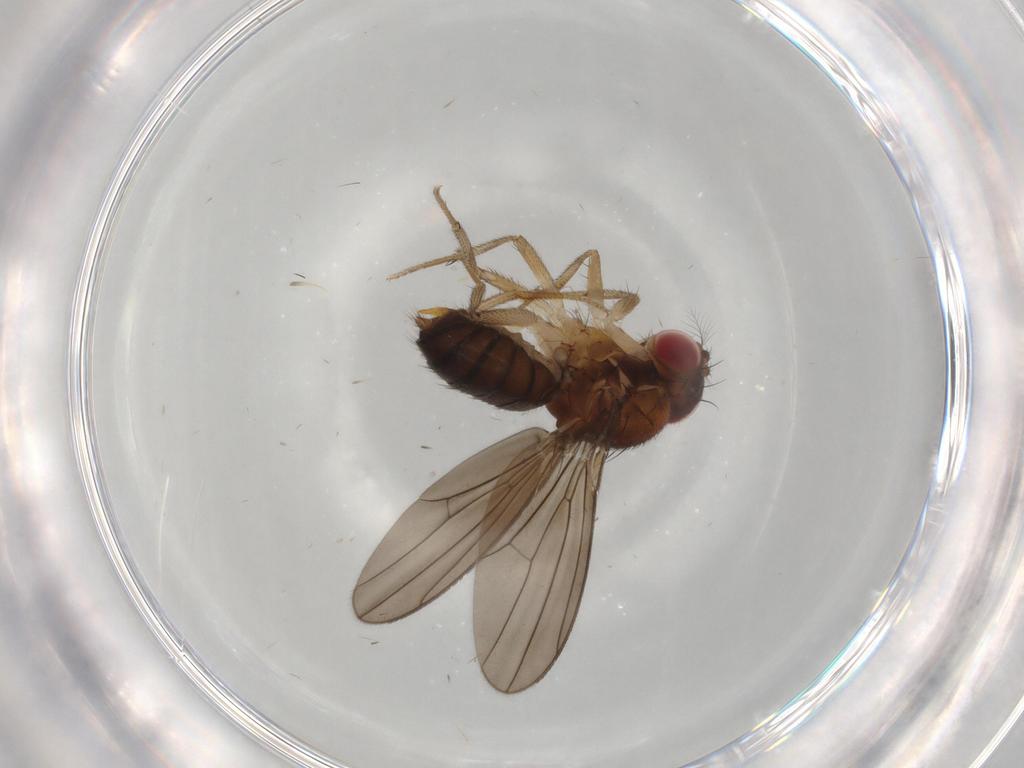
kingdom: Animalia
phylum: Arthropoda
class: Insecta
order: Diptera
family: Drosophilidae
